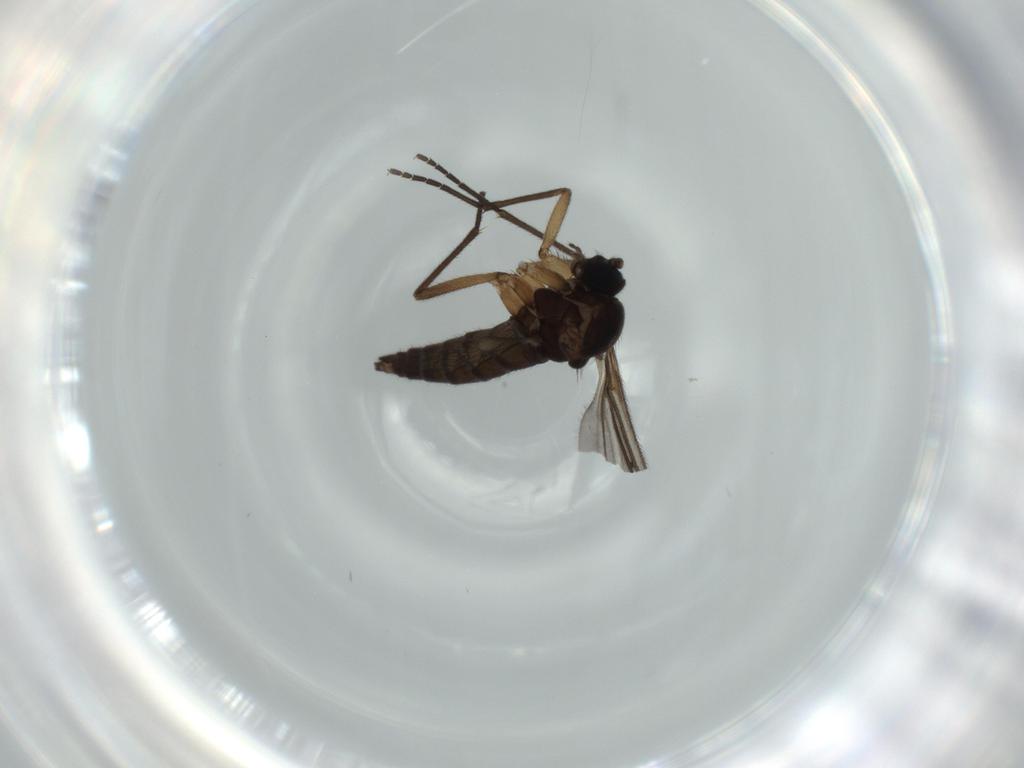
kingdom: Animalia
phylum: Arthropoda
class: Insecta
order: Diptera
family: Sciaridae
